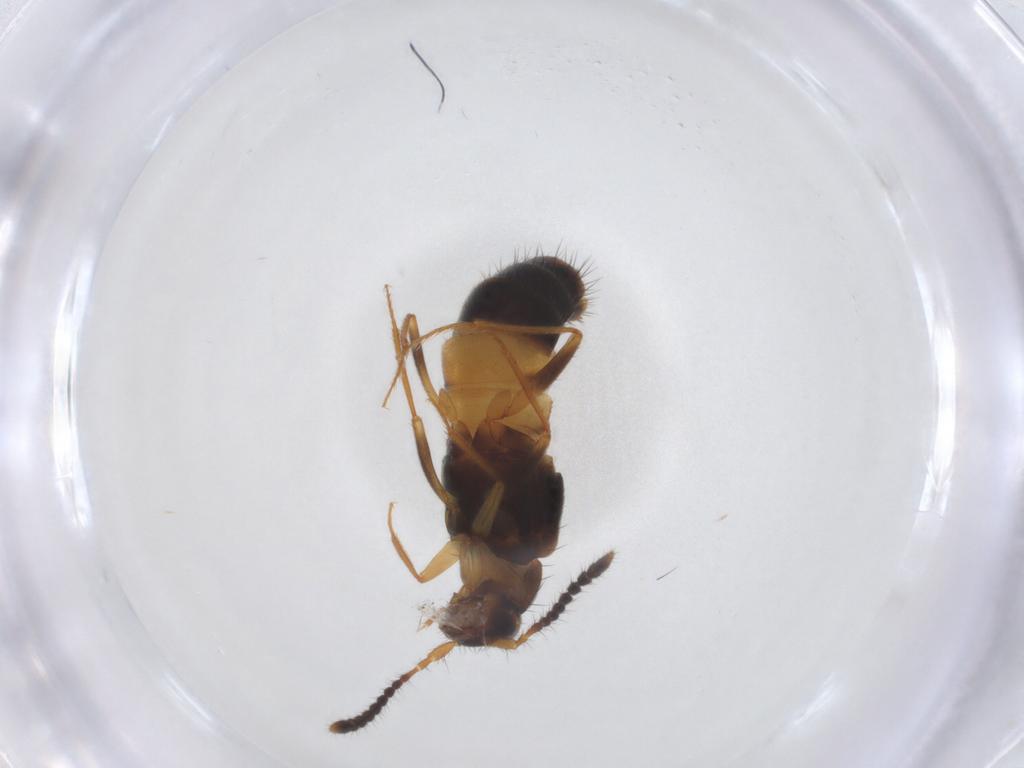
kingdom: Animalia
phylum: Arthropoda
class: Insecta
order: Coleoptera
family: Staphylinidae
